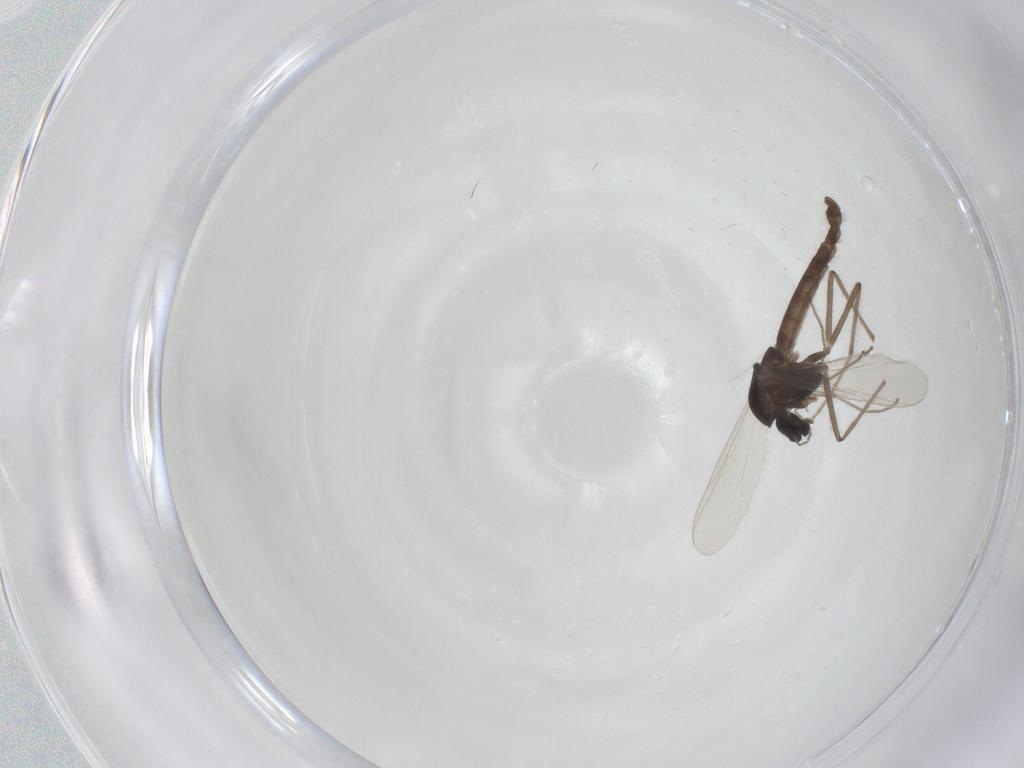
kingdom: Animalia
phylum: Arthropoda
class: Insecta
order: Diptera
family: Chironomidae
